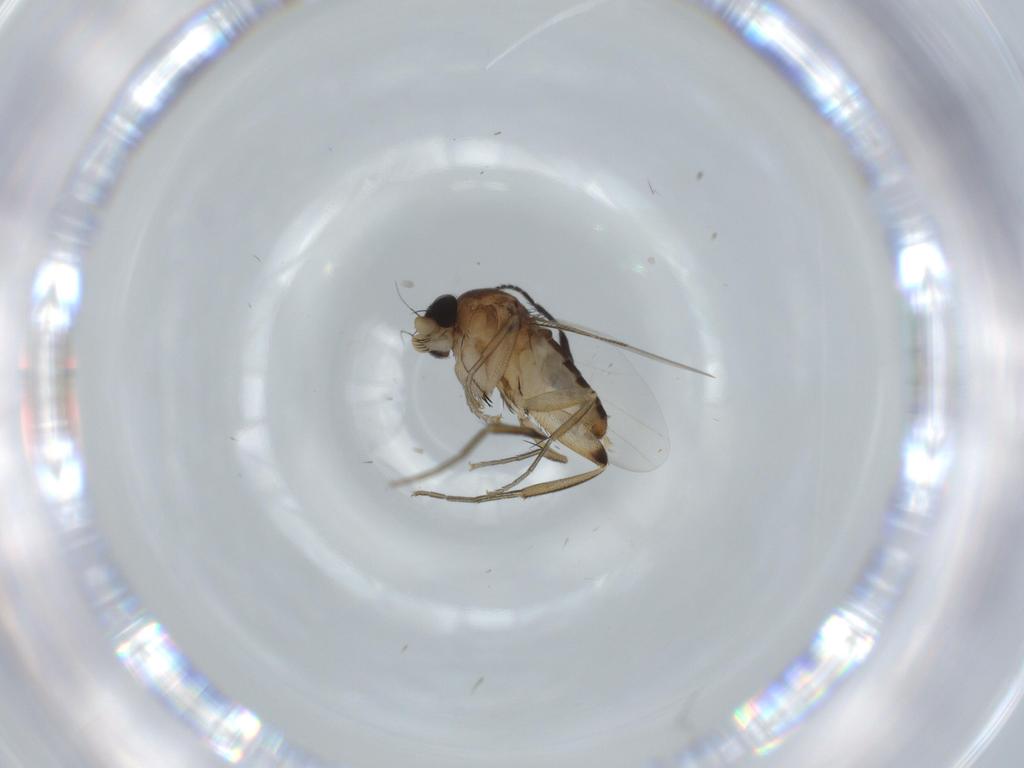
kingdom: Animalia
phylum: Arthropoda
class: Insecta
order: Diptera
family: Phoridae
